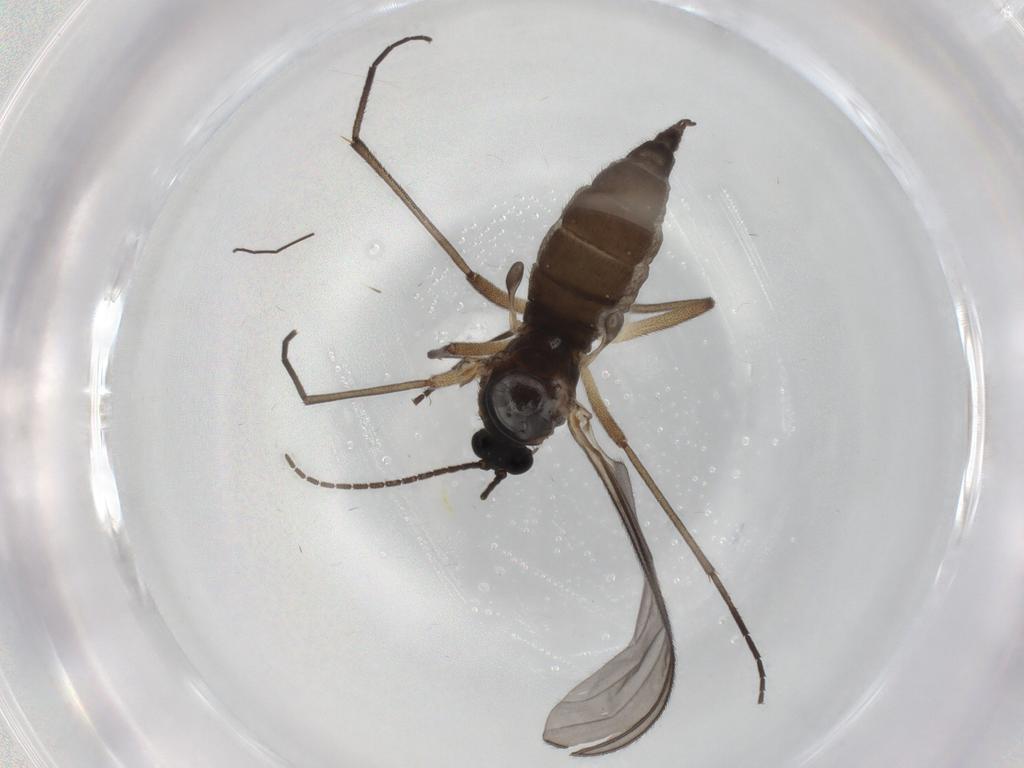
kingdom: Animalia
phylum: Arthropoda
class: Insecta
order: Diptera
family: Sciaridae
